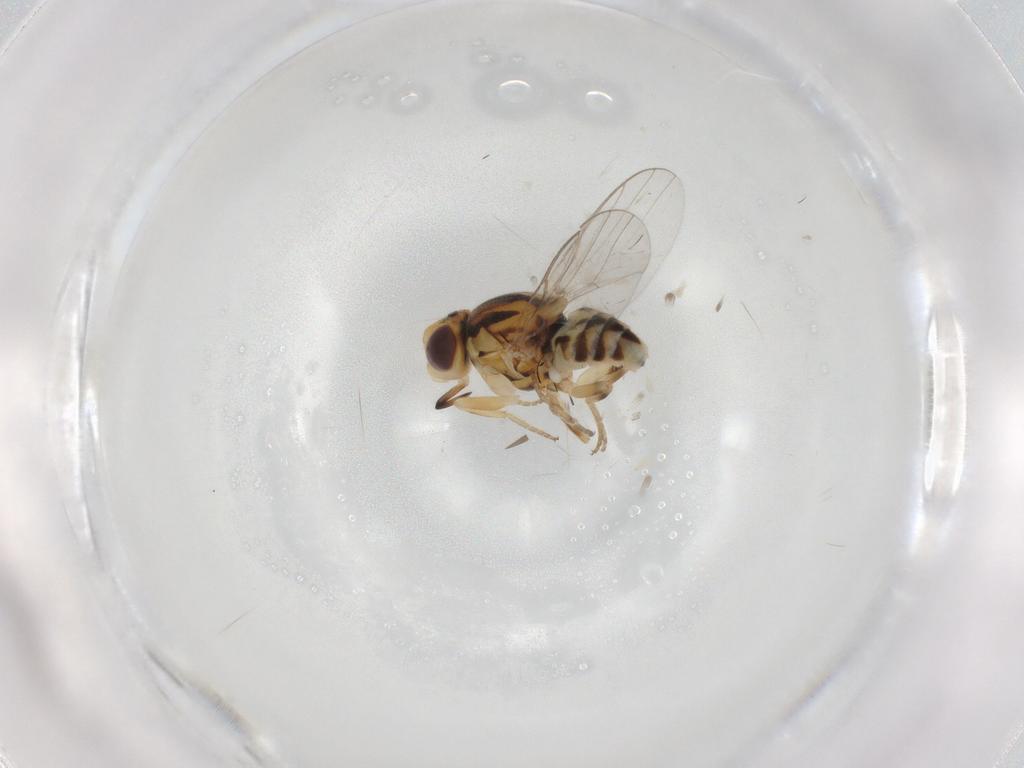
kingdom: Animalia
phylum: Arthropoda
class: Insecta
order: Diptera
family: Chloropidae
